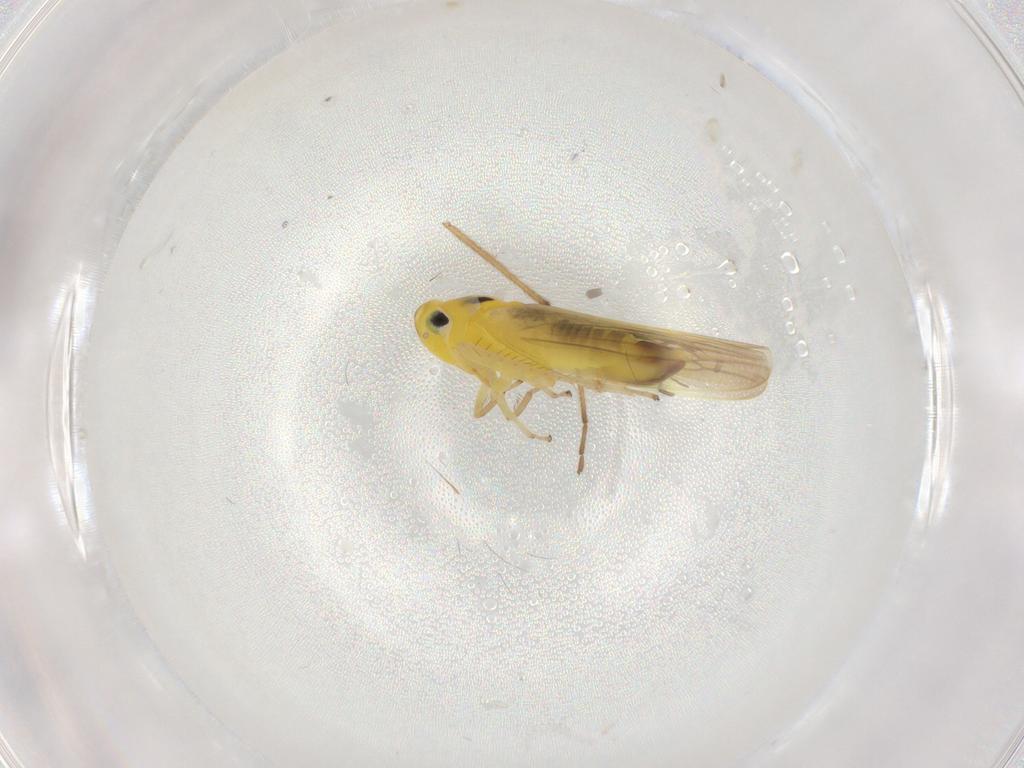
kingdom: Animalia
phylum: Arthropoda
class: Insecta
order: Hemiptera
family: Cicadellidae
